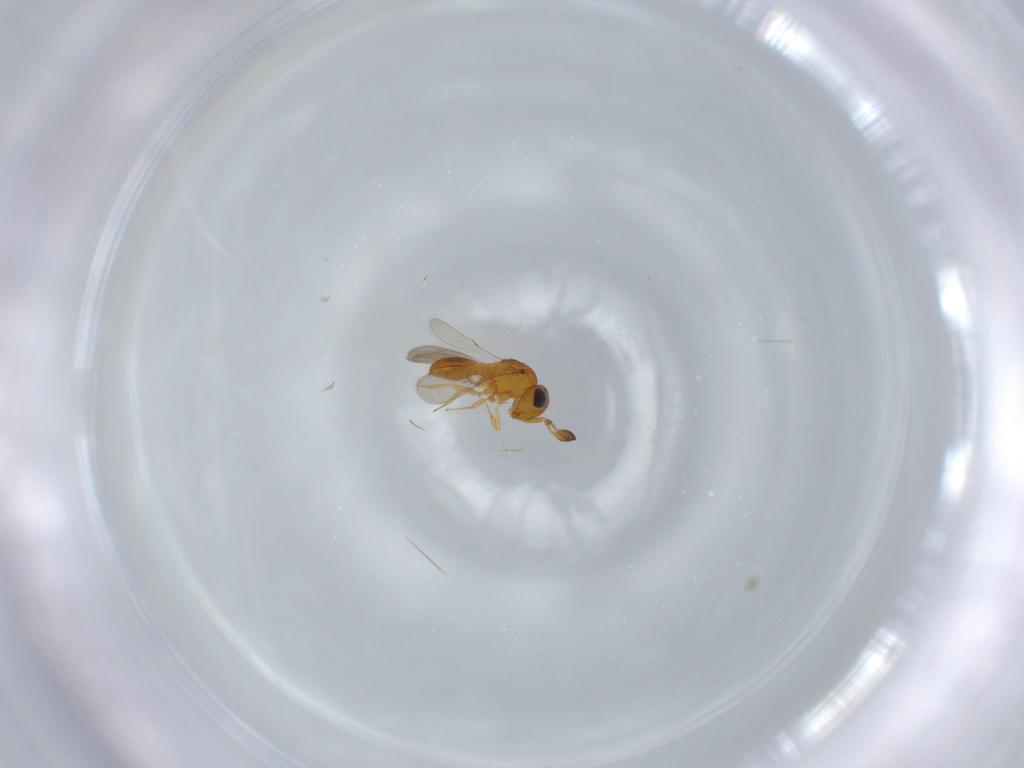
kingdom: Animalia
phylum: Arthropoda
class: Insecta
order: Hymenoptera
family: Scelionidae
